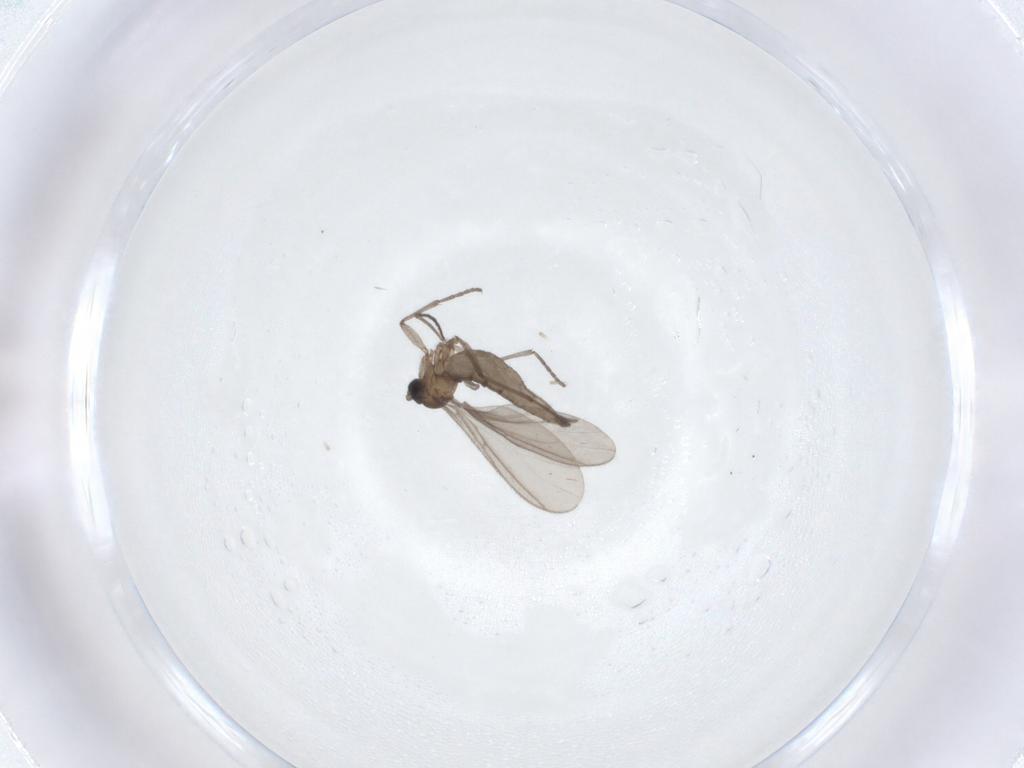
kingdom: Animalia
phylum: Arthropoda
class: Insecta
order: Diptera
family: Sciaridae
